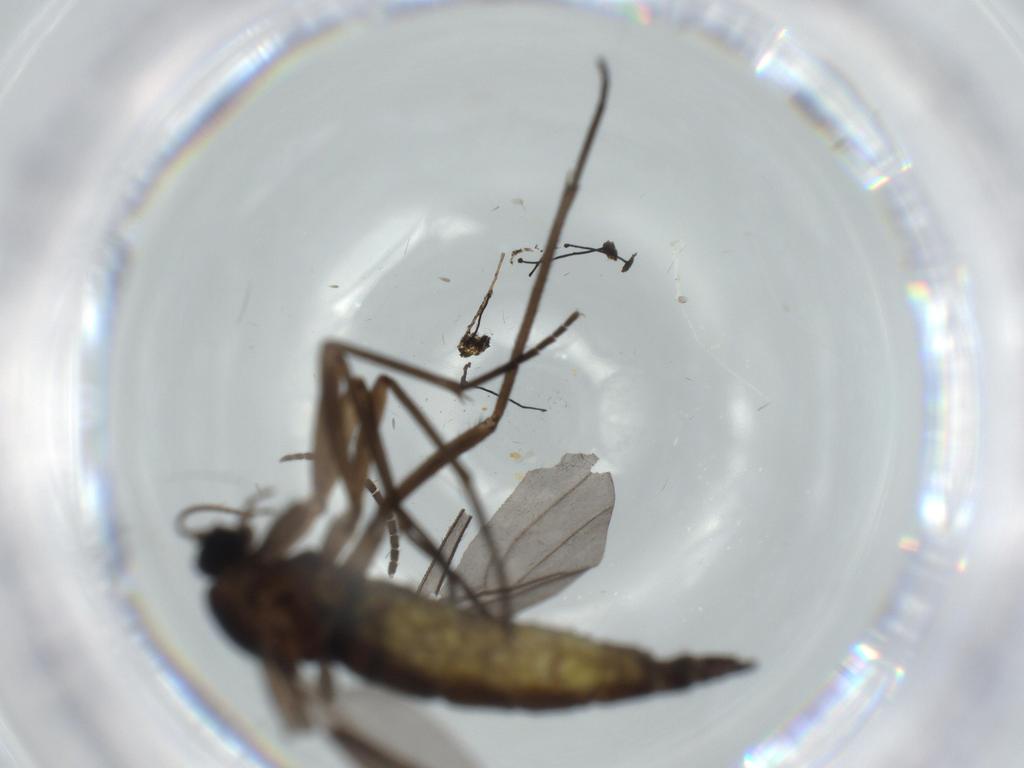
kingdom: Animalia
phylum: Arthropoda
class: Insecta
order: Diptera
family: Sciaridae
